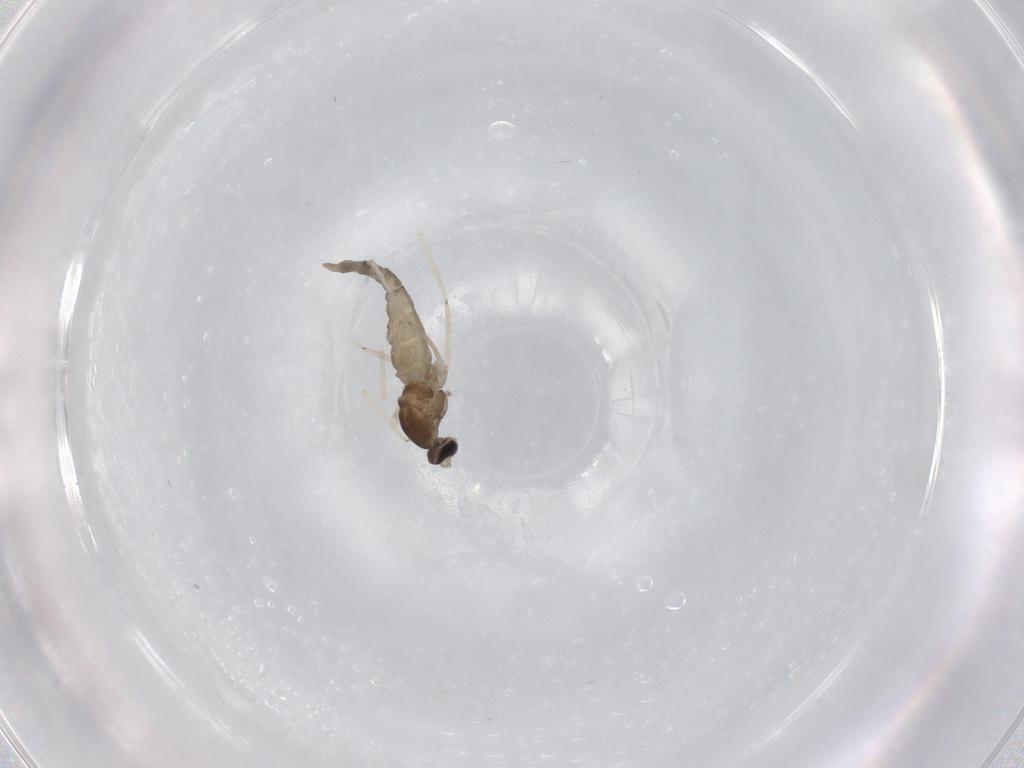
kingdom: Animalia
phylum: Arthropoda
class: Insecta
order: Diptera
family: Cecidomyiidae
